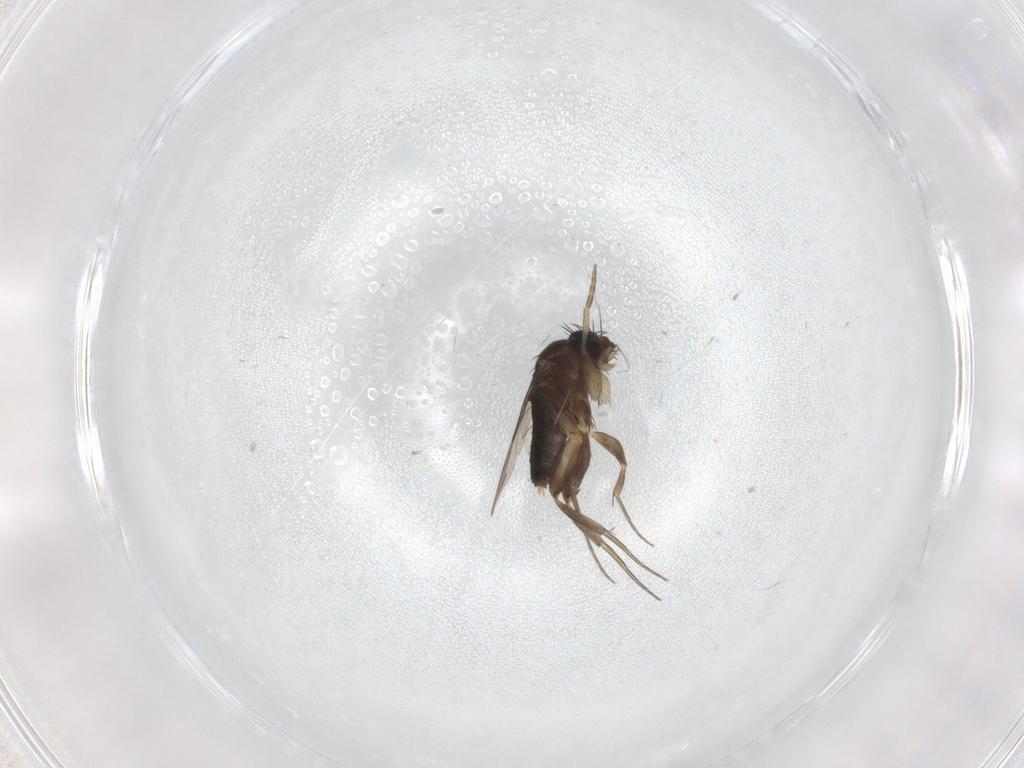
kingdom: Animalia
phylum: Arthropoda
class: Insecta
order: Diptera
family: Phoridae
